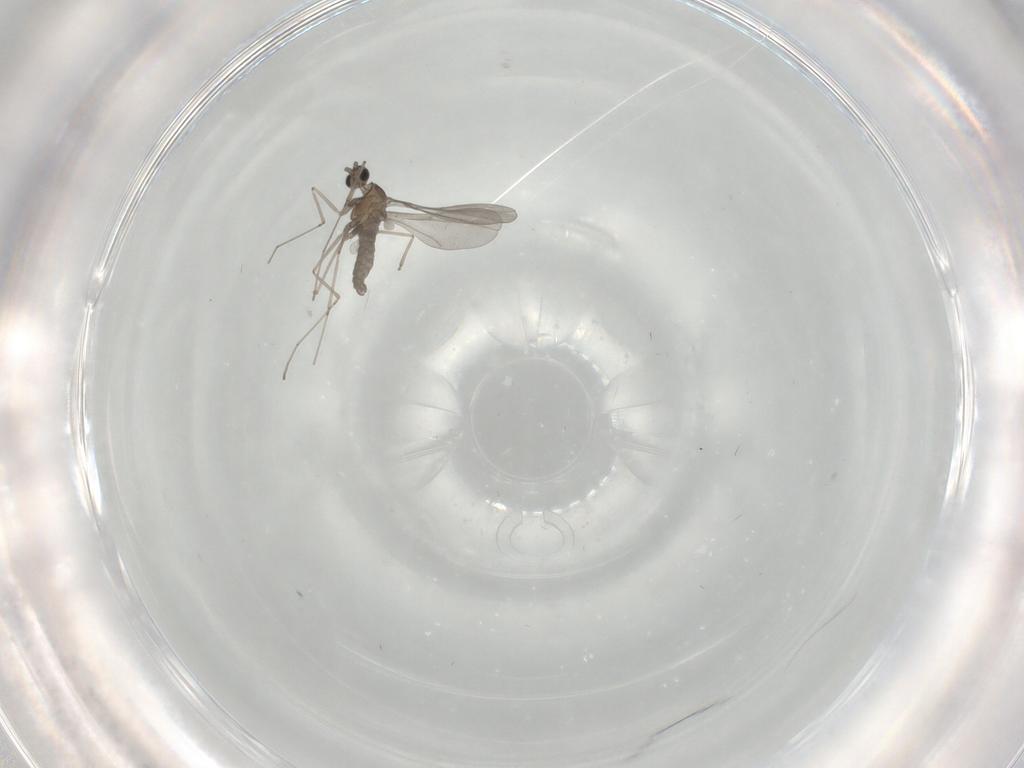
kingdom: Animalia
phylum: Arthropoda
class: Insecta
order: Diptera
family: Cecidomyiidae
